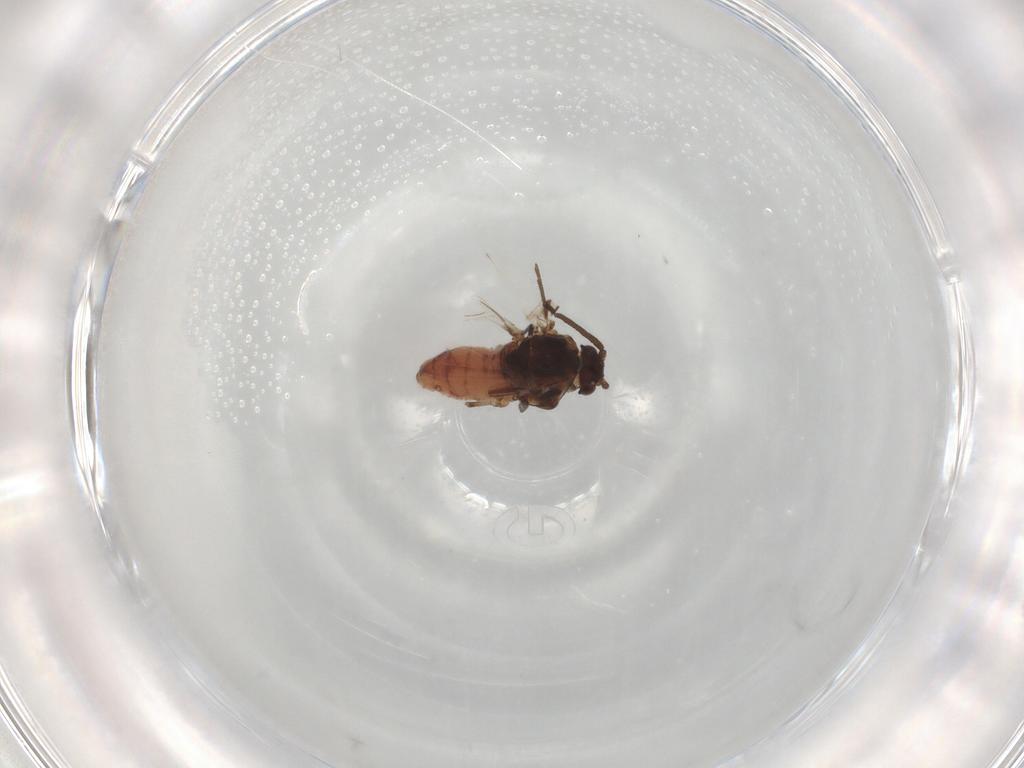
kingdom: Animalia
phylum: Arthropoda
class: Insecta
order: Hemiptera
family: Aphididae
